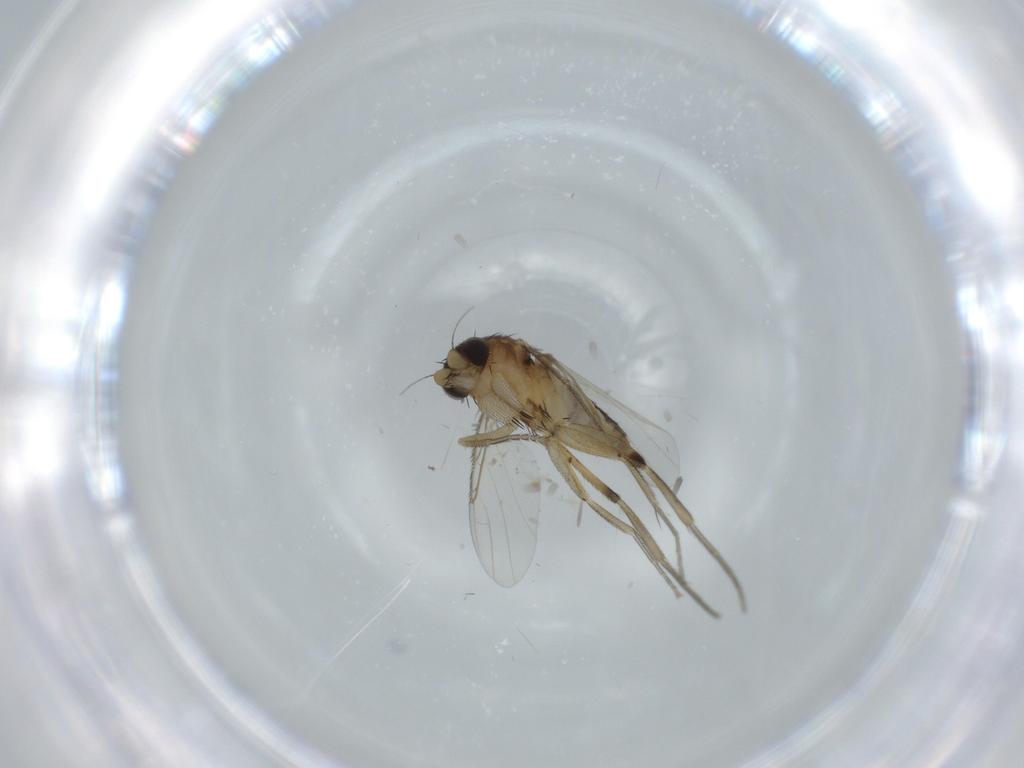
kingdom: Animalia
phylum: Arthropoda
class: Insecta
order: Diptera
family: Phoridae
